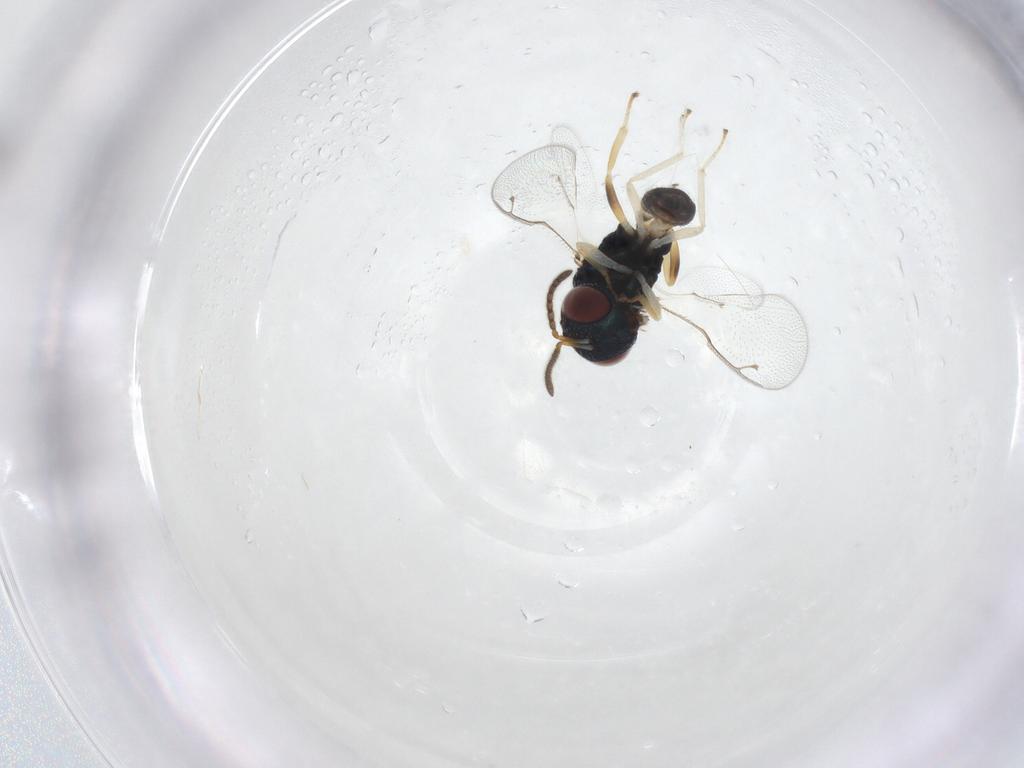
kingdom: Animalia
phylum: Arthropoda
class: Insecta
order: Hymenoptera
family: Pteromalidae
